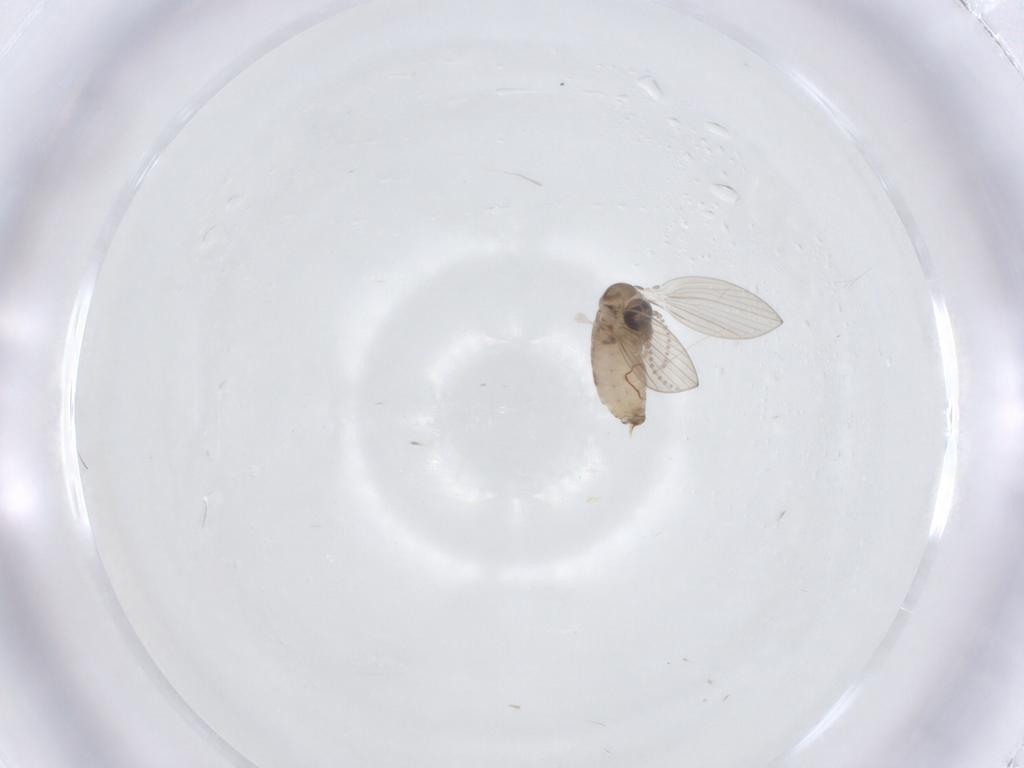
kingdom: Animalia
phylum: Arthropoda
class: Insecta
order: Diptera
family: Psychodidae
